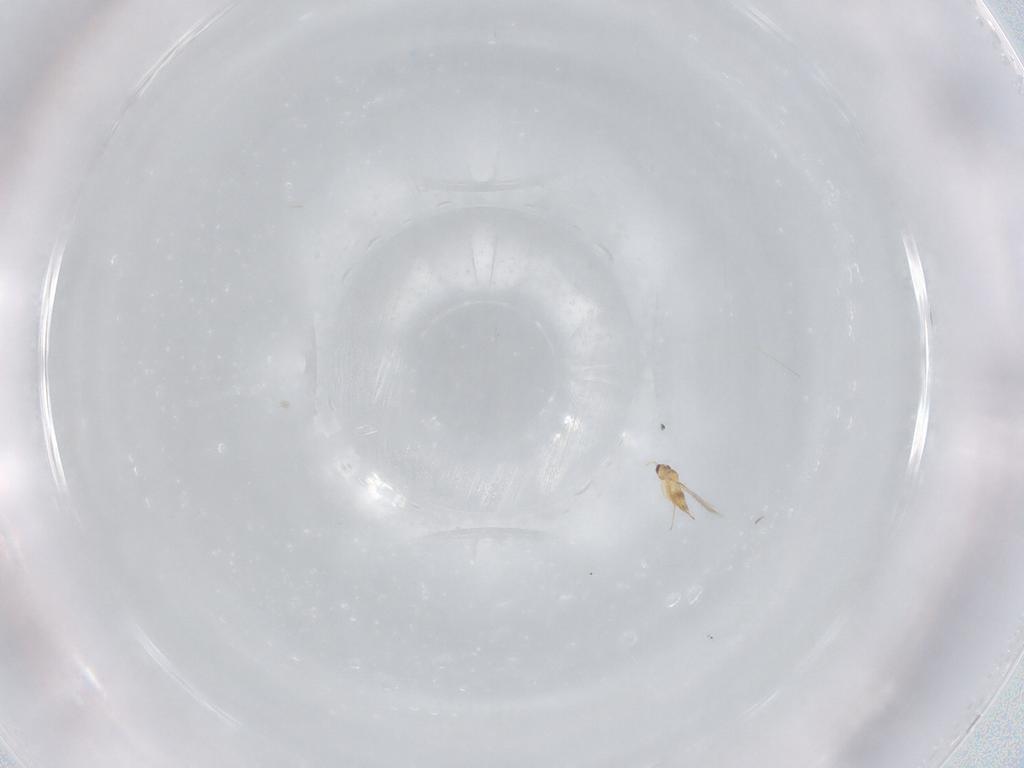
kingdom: Animalia
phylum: Arthropoda
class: Insecta
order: Hymenoptera
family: Mymaridae
